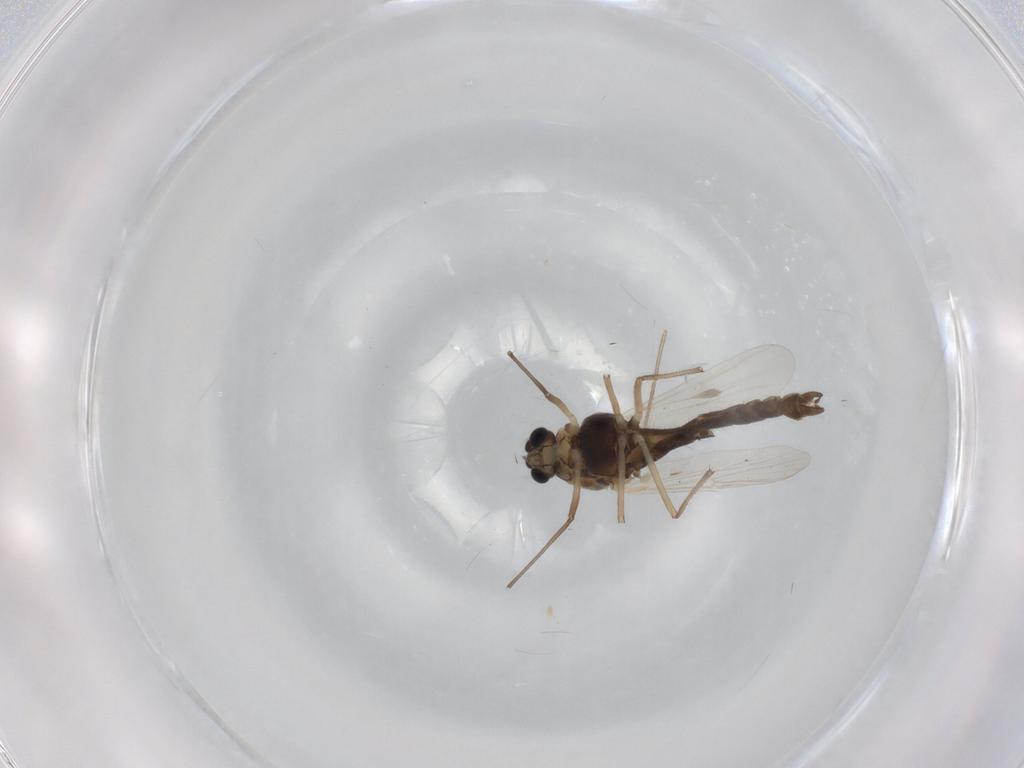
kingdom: Animalia
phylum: Arthropoda
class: Insecta
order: Diptera
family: Chironomidae
